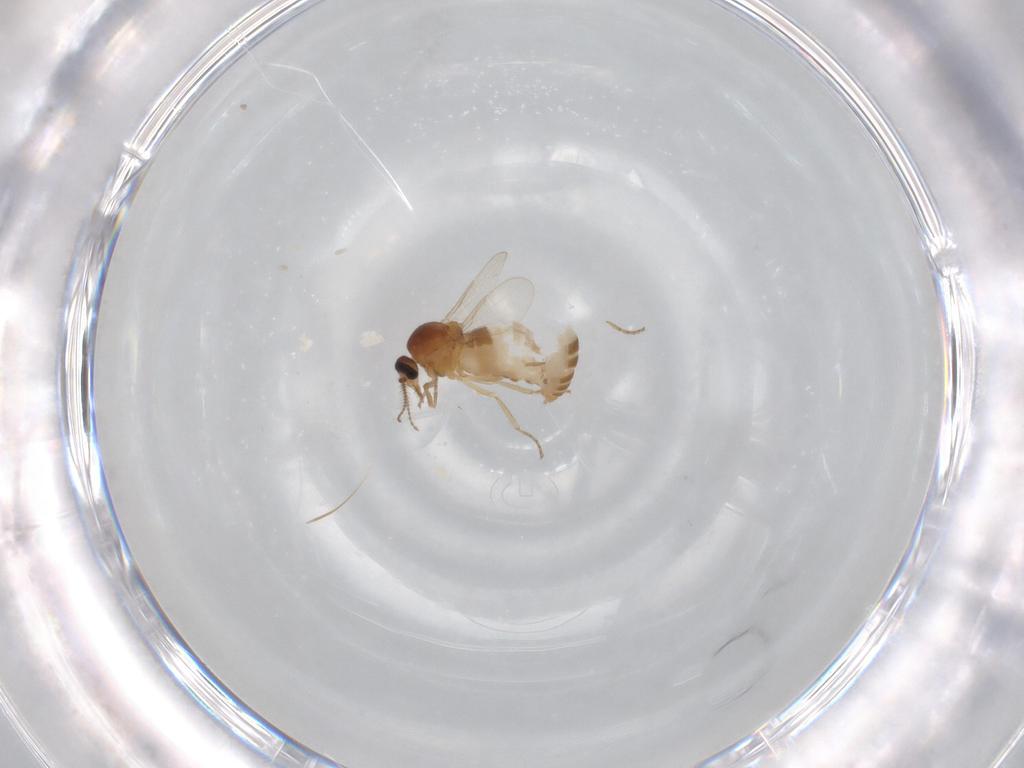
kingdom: Animalia
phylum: Arthropoda
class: Insecta
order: Diptera
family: Ceratopogonidae
